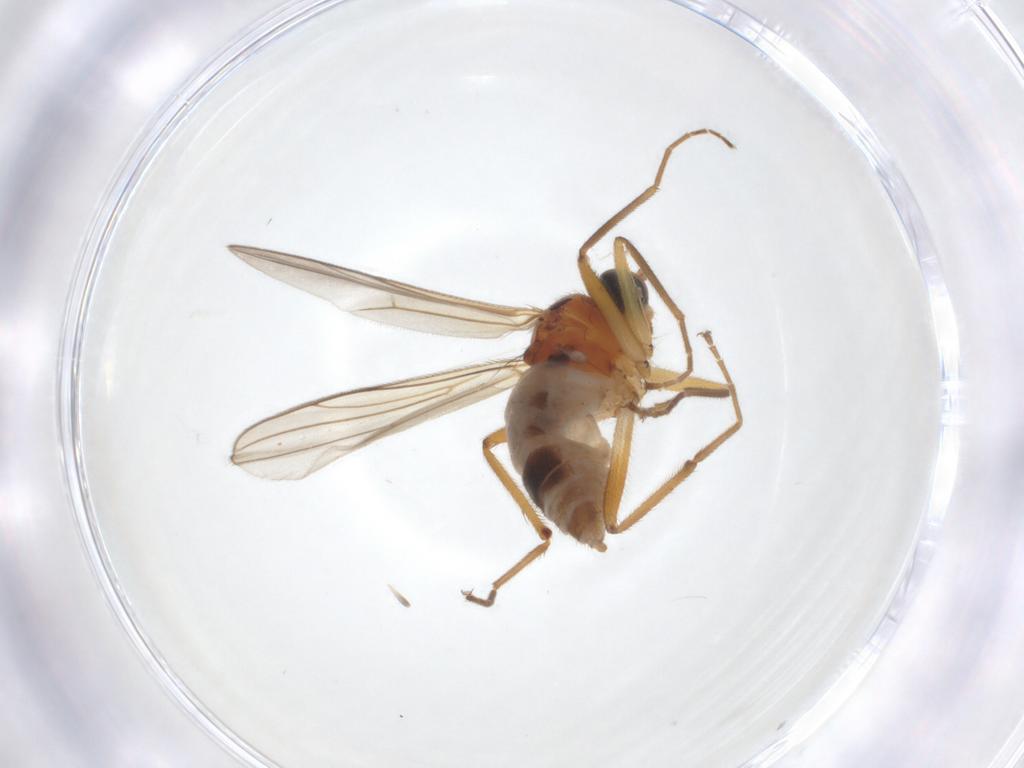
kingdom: Animalia
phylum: Arthropoda
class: Insecta
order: Diptera
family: Hybotidae
